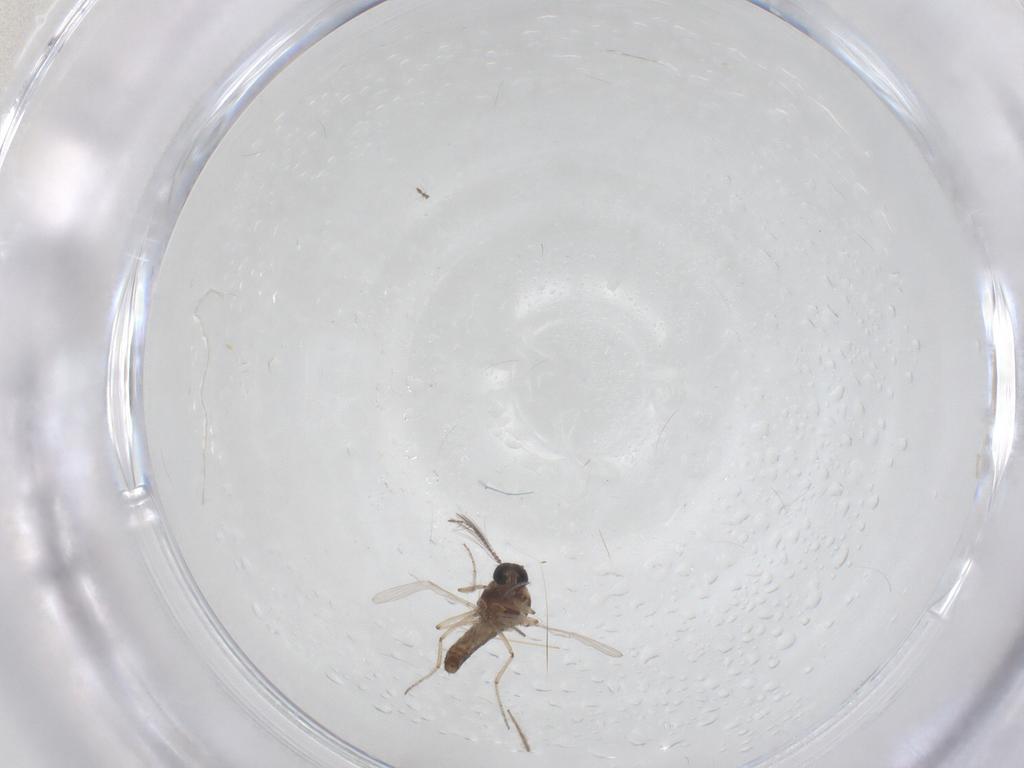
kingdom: Animalia
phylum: Arthropoda
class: Insecta
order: Diptera
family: Ceratopogonidae
